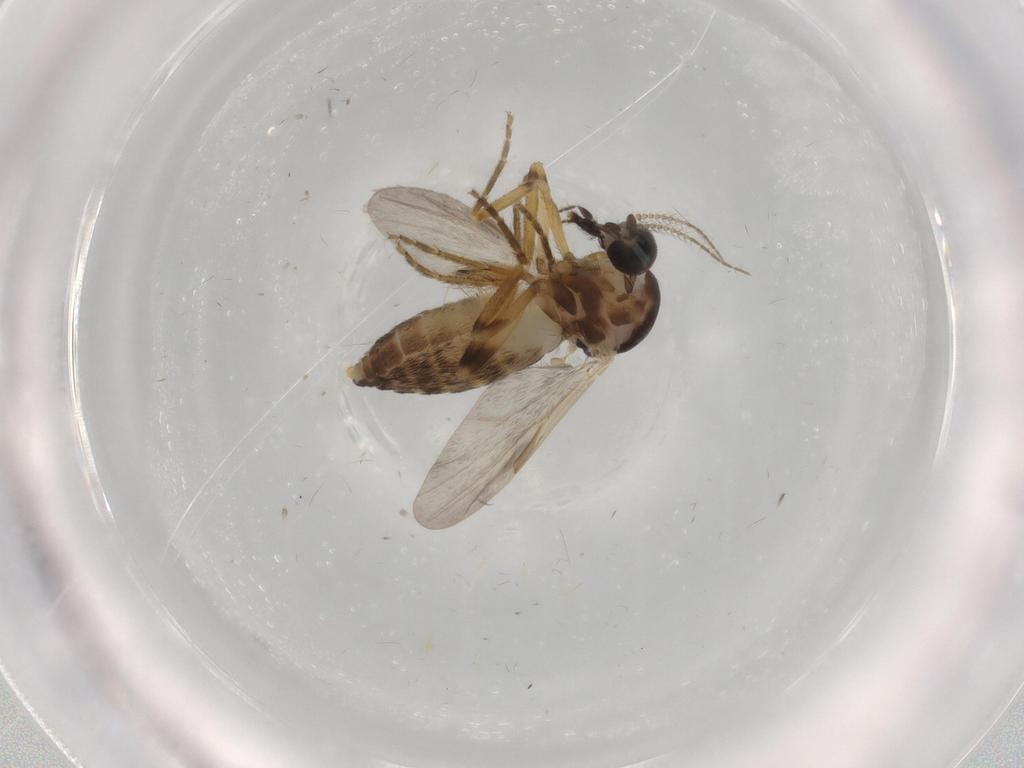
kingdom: Animalia
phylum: Arthropoda
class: Insecta
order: Diptera
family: Ceratopogonidae
